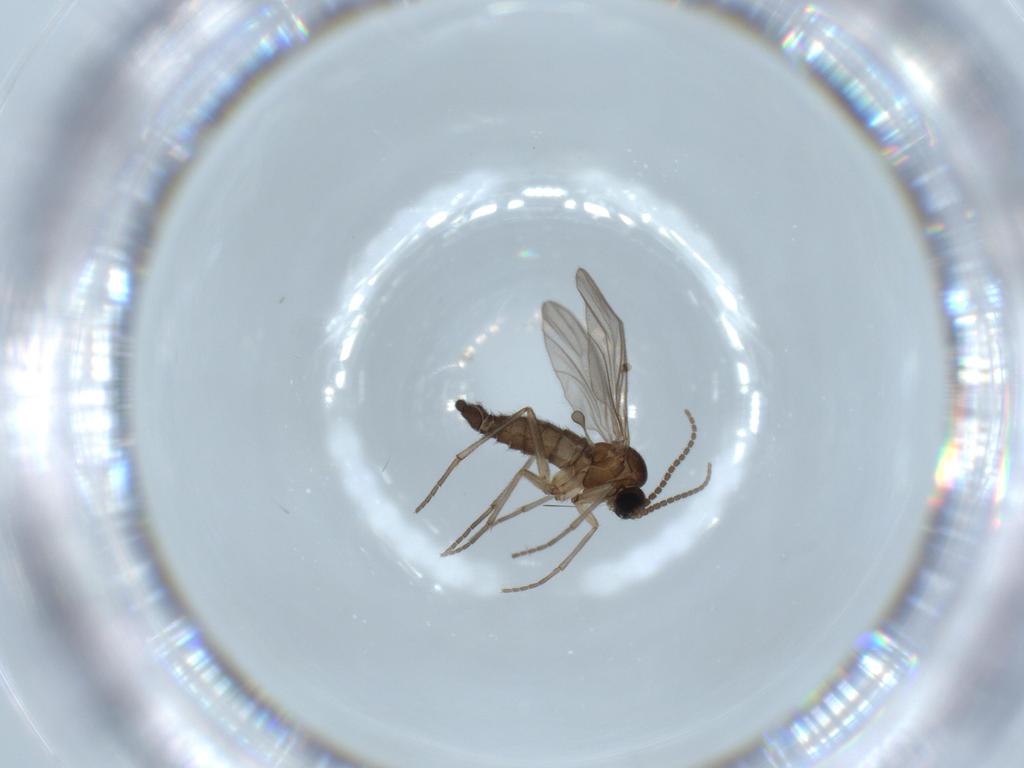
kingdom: Animalia
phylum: Arthropoda
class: Insecta
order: Diptera
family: Sciaridae
